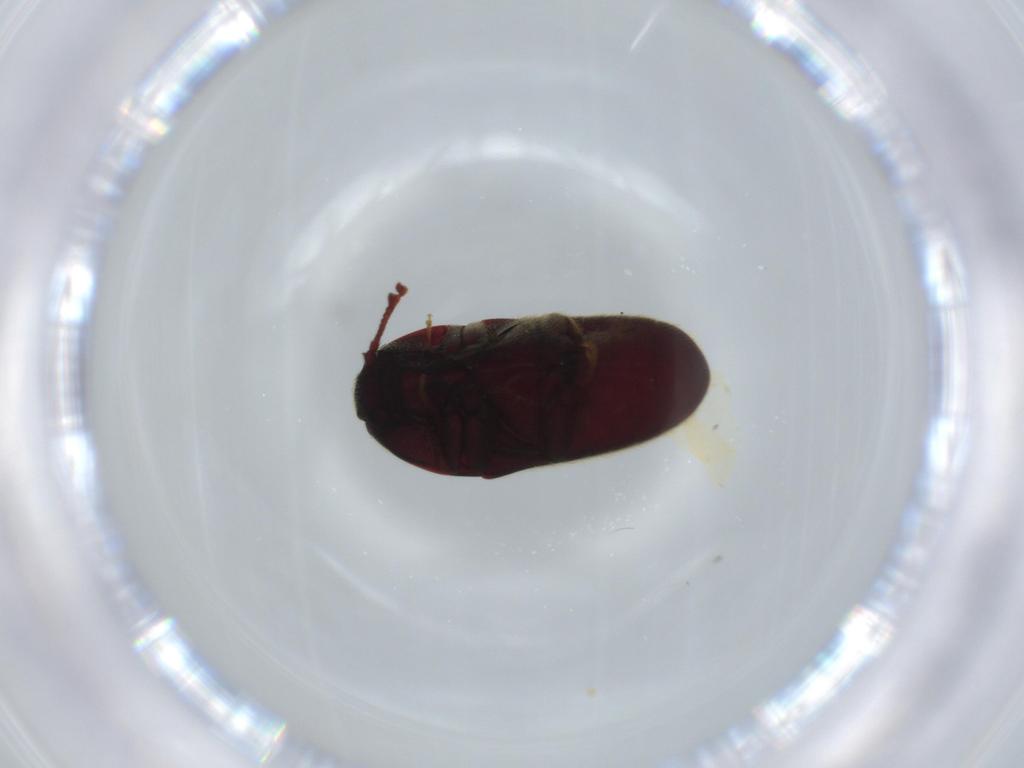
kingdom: Animalia
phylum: Arthropoda
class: Insecta
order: Coleoptera
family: Throscidae
